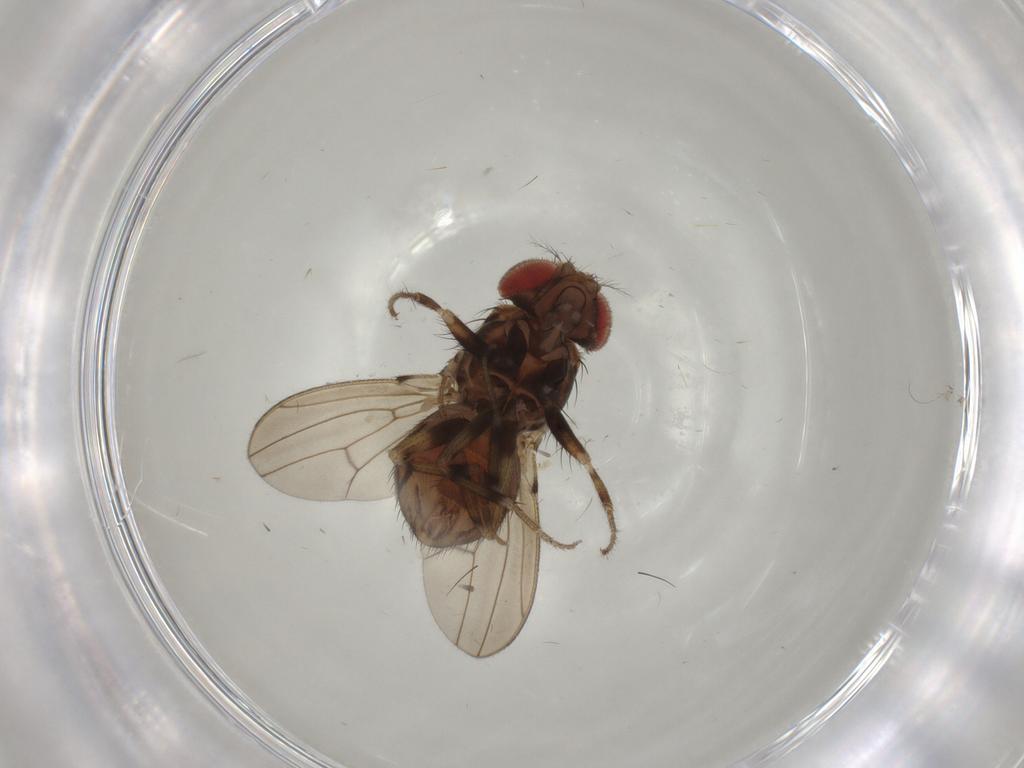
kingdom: Animalia
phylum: Arthropoda
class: Insecta
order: Diptera
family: Drosophilidae
